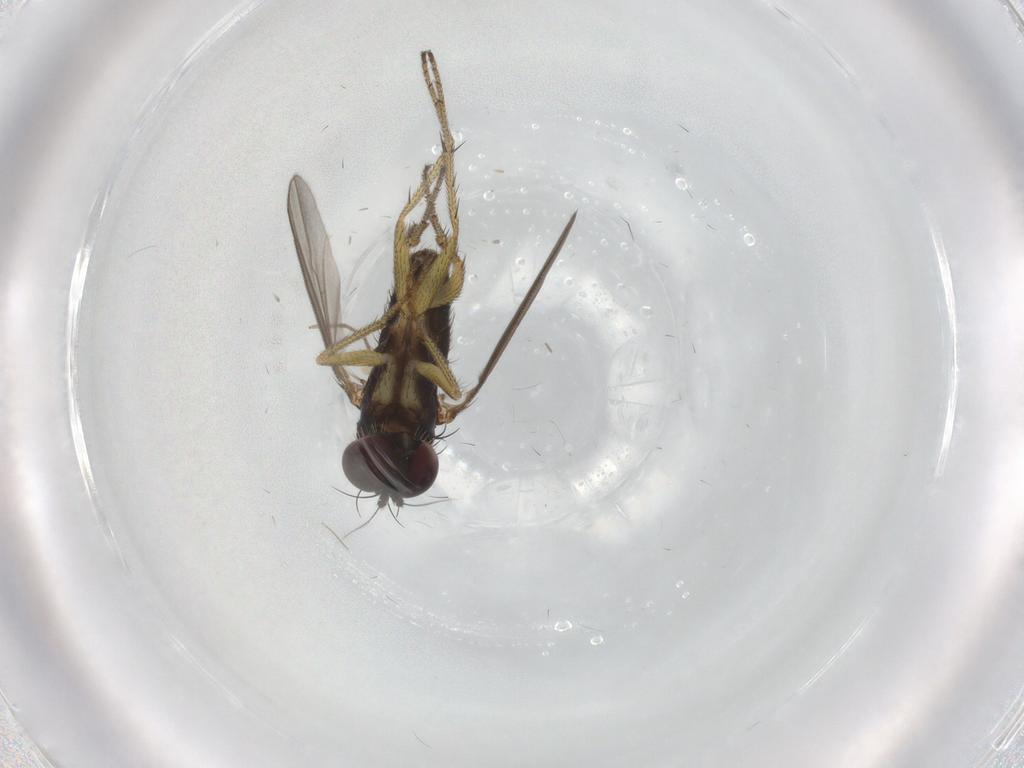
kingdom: Animalia
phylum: Arthropoda
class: Insecta
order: Diptera
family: Chironomidae
